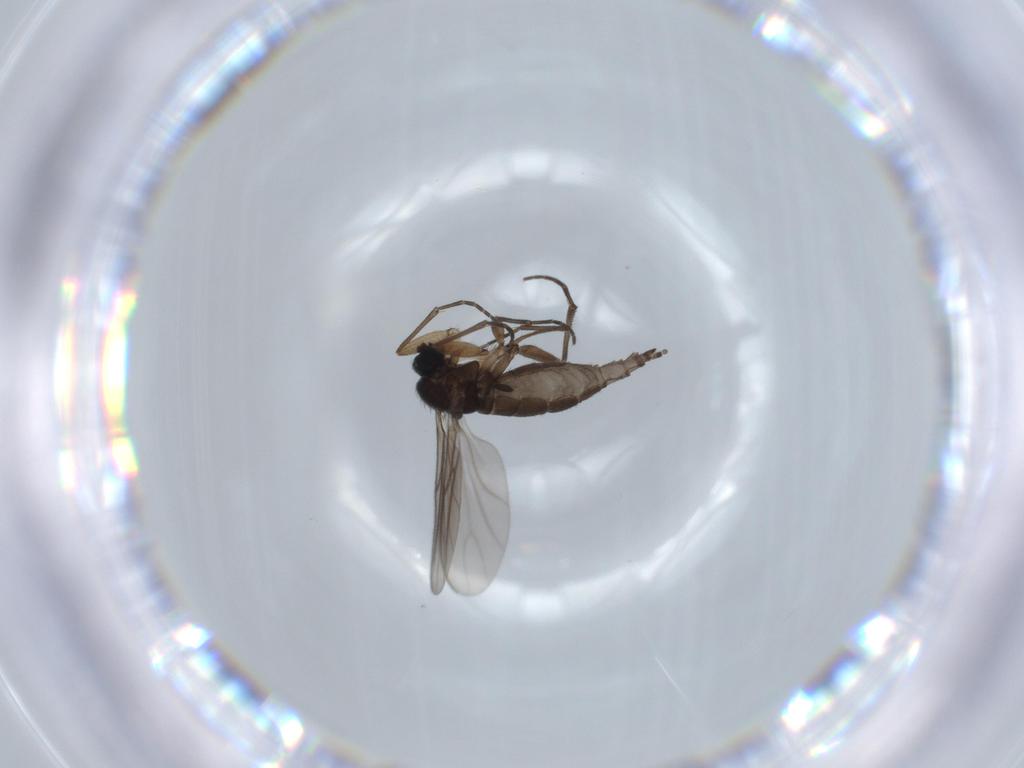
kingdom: Animalia
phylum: Arthropoda
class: Insecta
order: Diptera
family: Sciaridae
